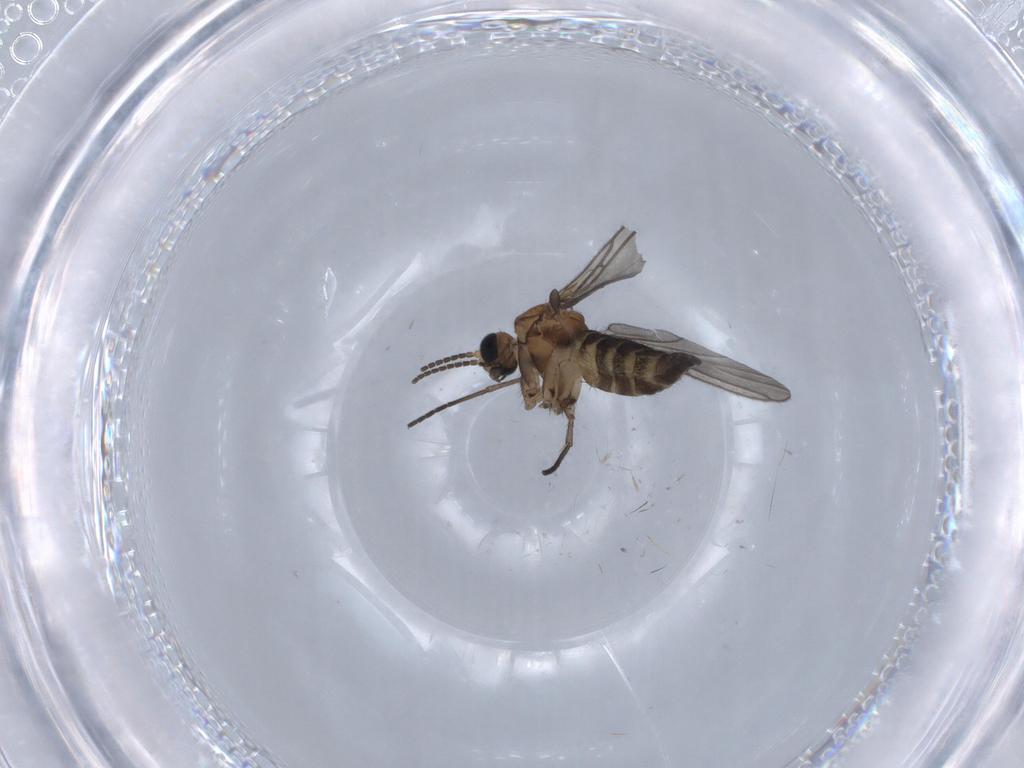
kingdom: Animalia
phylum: Arthropoda
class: Insecta
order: Diptera
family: Sciaridae
